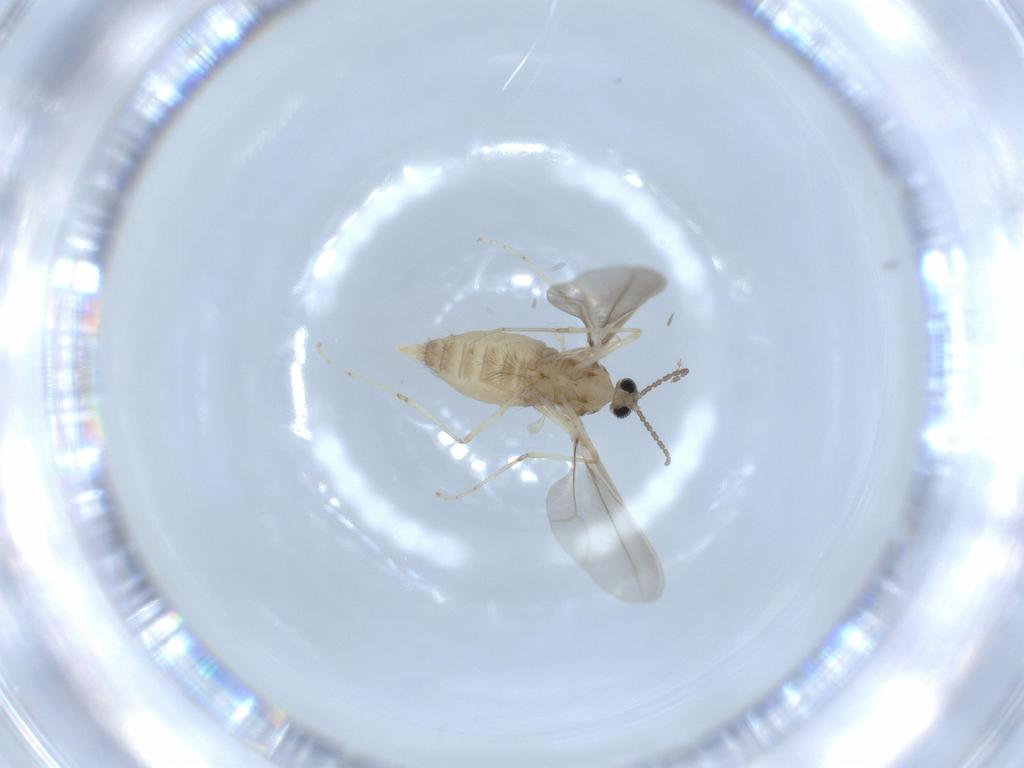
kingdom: Animalia
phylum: Arthropoda
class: Insecta
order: Diptera
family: Cecidomyiidae
